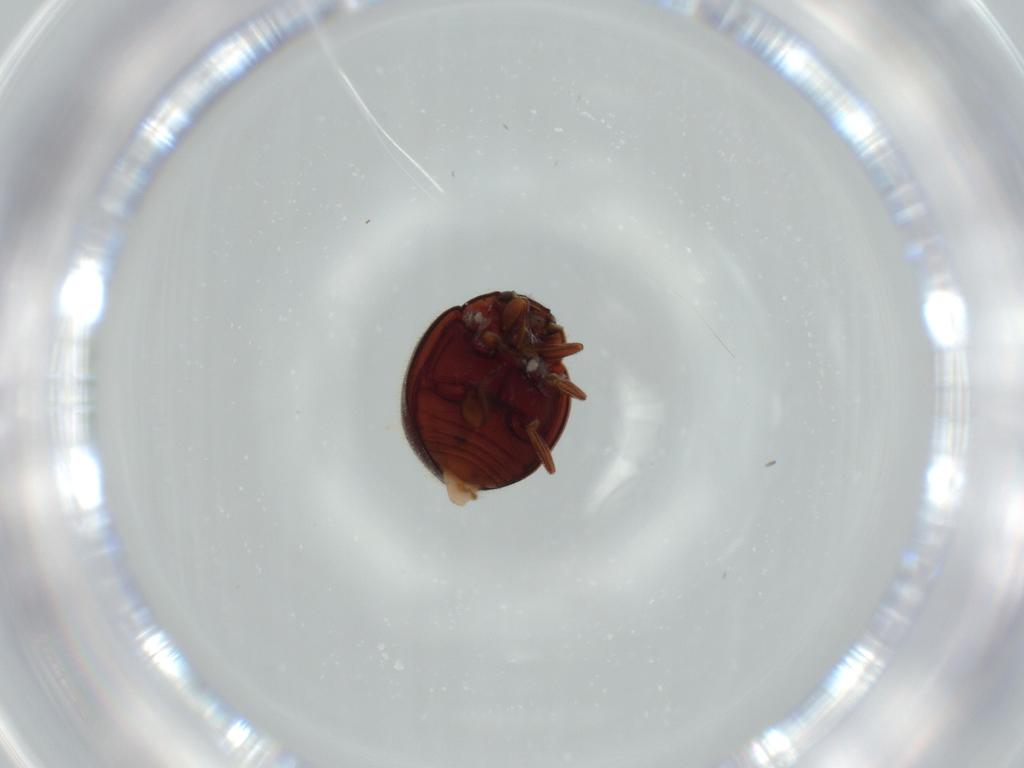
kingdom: Animalia
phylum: Arthropoda
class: Insecta
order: Coleoptera
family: Coccinellidae
